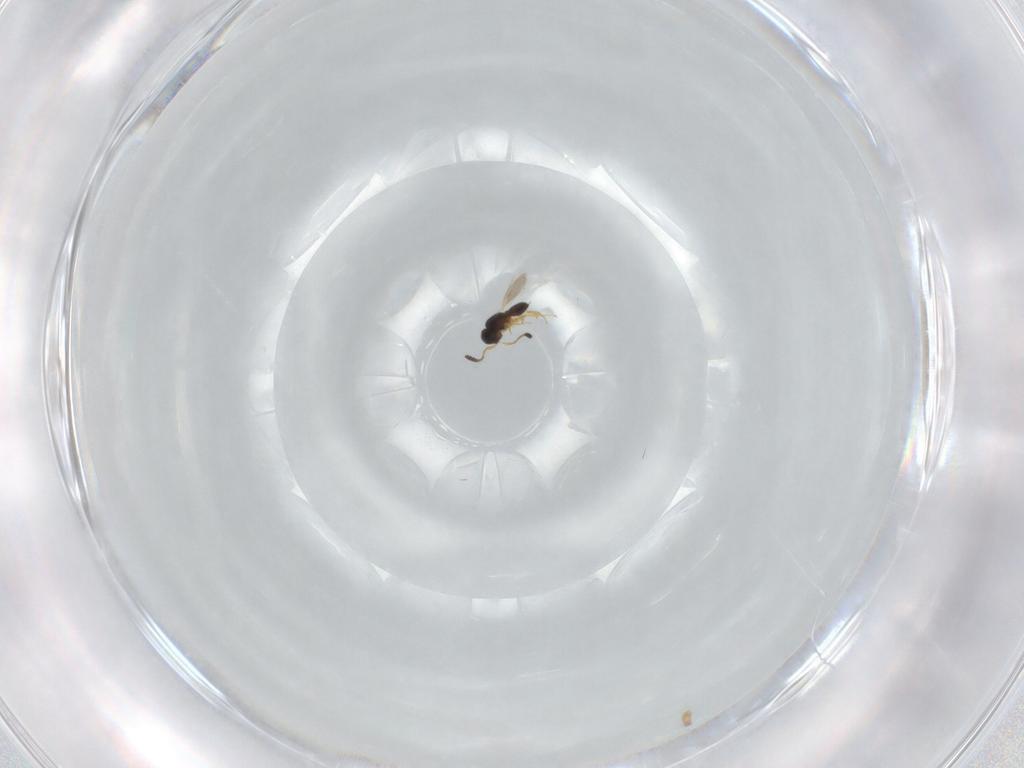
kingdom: Animalia
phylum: Arthropoda
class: Insecta
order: Hymenoptera
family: Scelionidae
